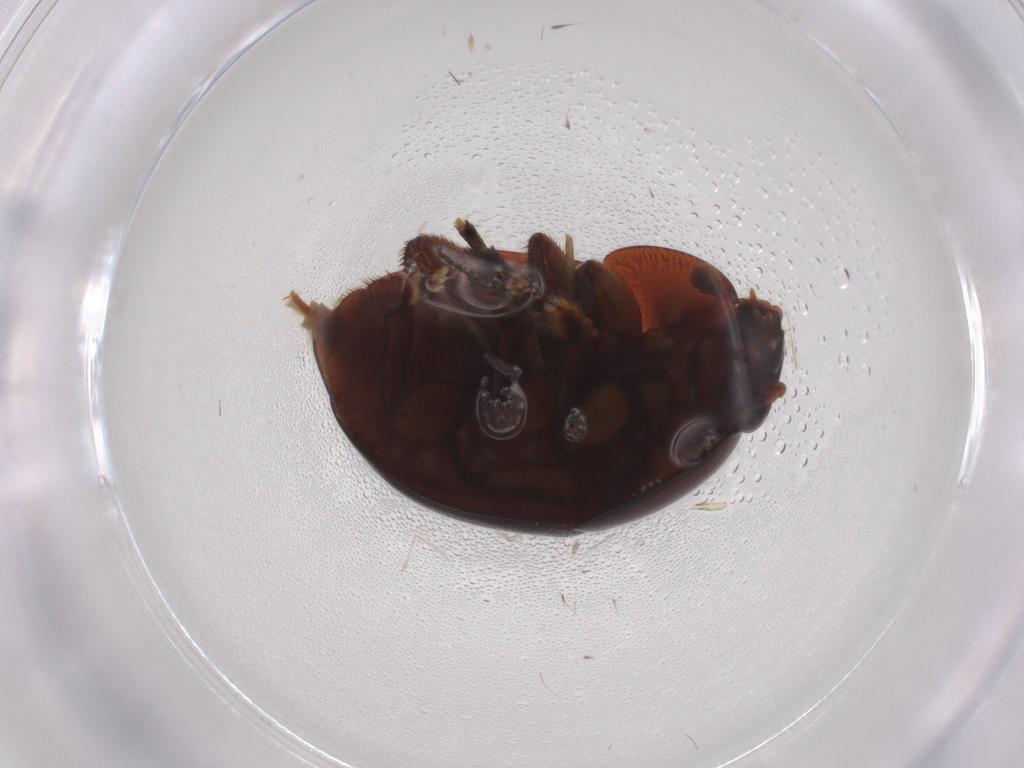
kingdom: Animalia
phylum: Arthropoda
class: Insecta
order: Coleoptera
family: Nitidulidae
